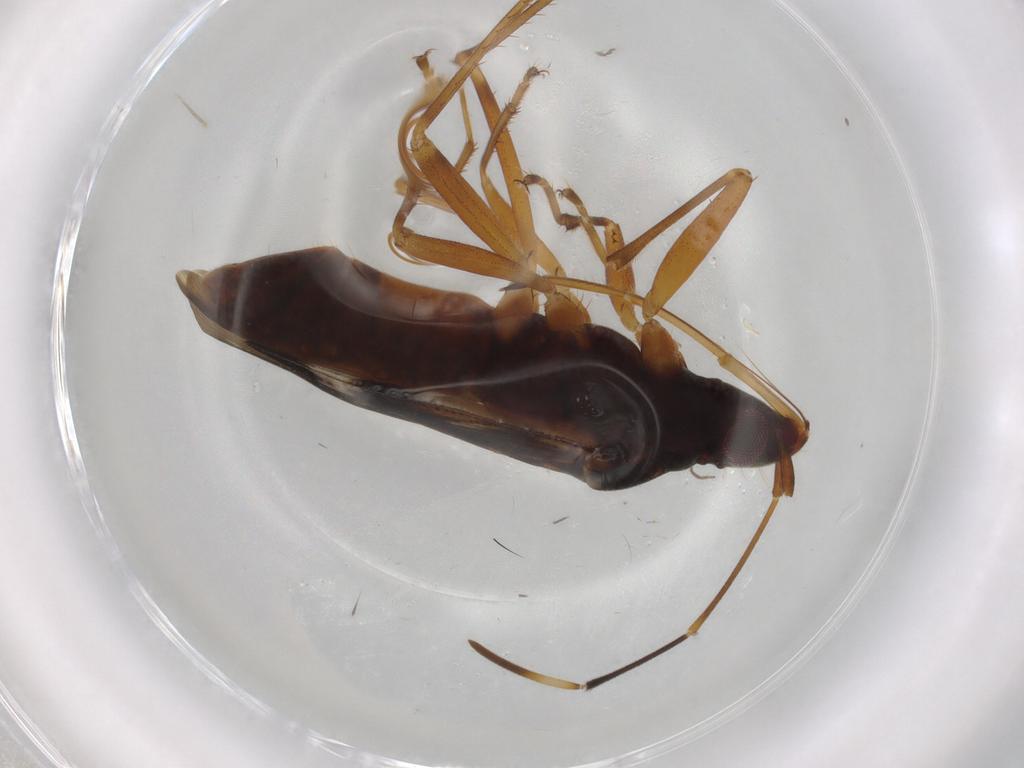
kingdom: Animalia
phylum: Arthropoda
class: Insecta
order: Hemiptera
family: Rhyparochromidae
